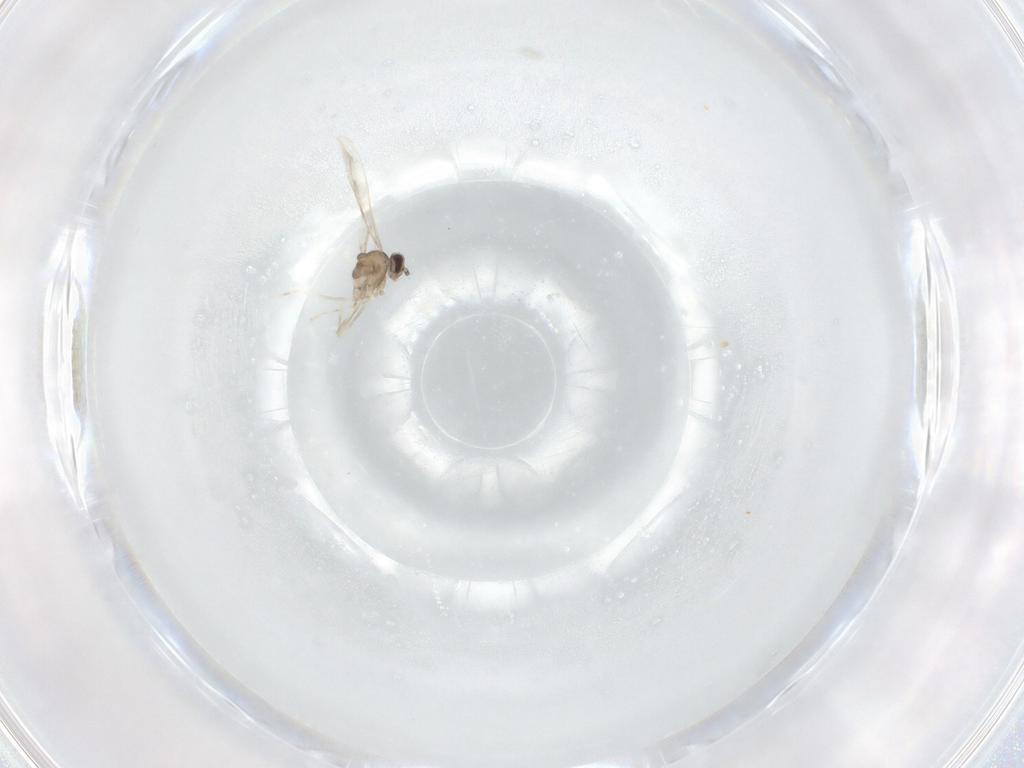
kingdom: Animalia
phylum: Arthropoda
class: Insecta
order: Diptera
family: Cecidomyiidae
